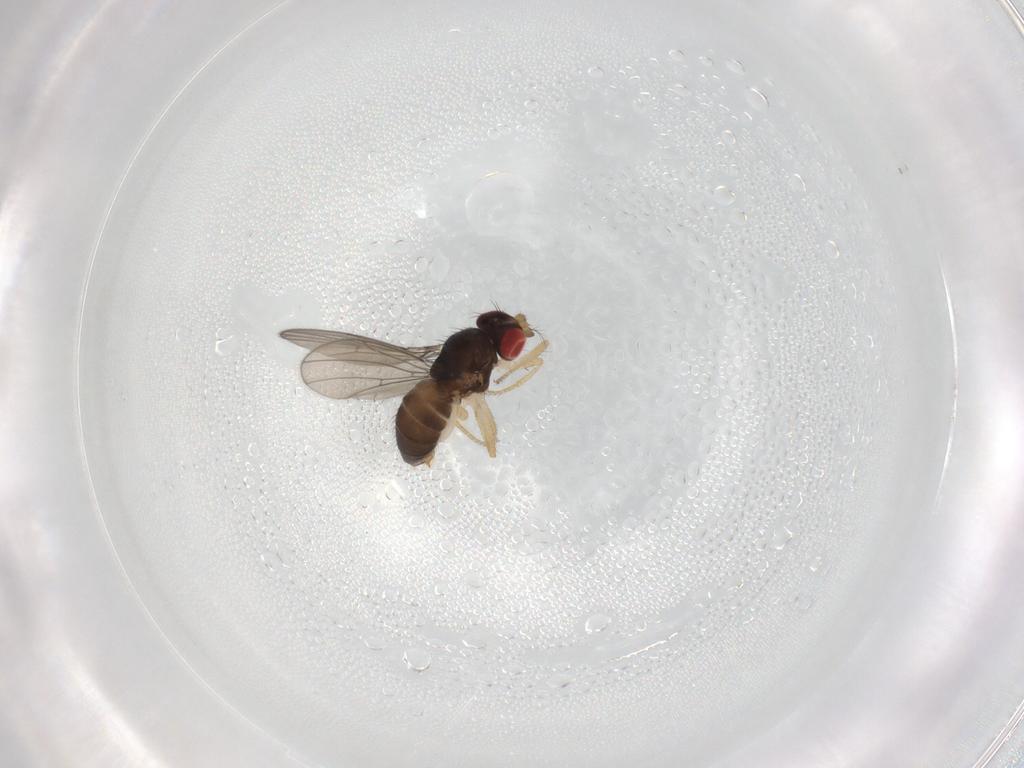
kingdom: Animalia
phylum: Arthropoda
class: Insecta
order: Diptera
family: Drosophilidae
